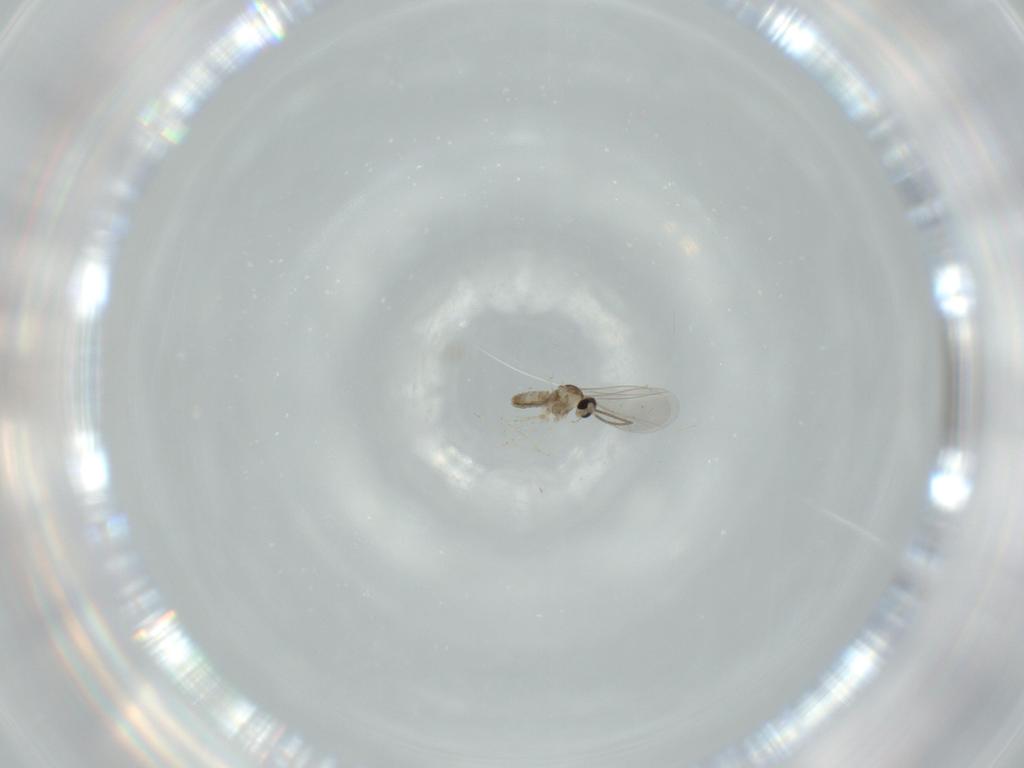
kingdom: Animalia
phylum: Arthropoda
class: Insecta
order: Diptera
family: Cecidomyiidae
